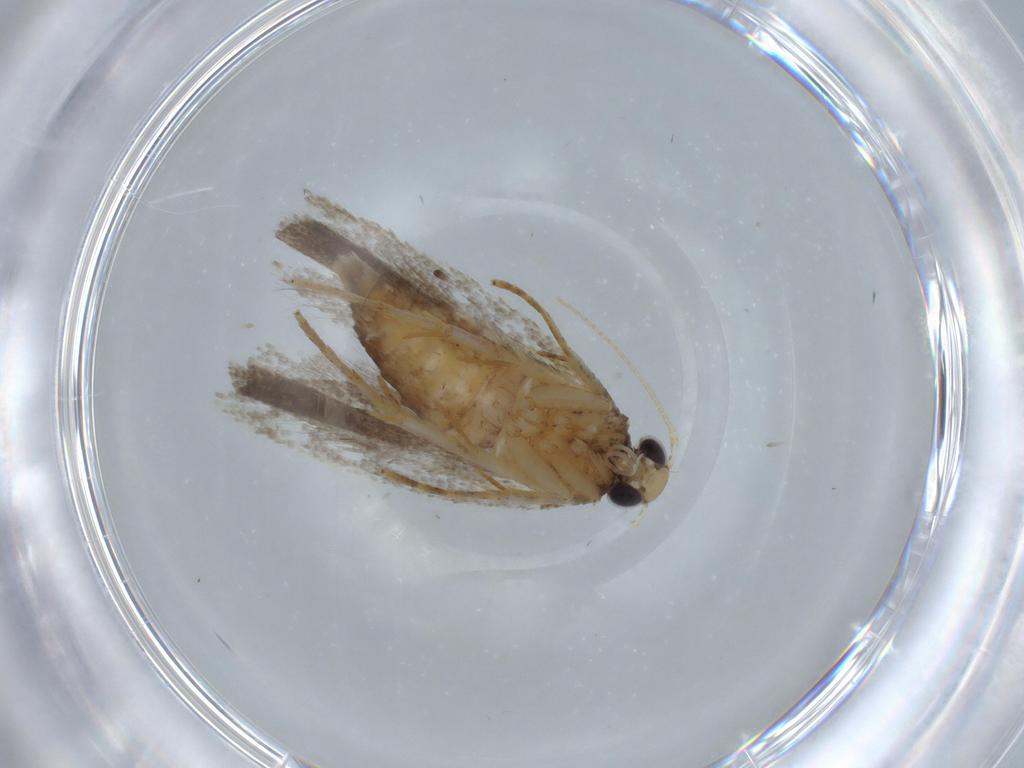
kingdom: Animalia
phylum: Arthropoda
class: Insecta
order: Lepidoptera
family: Gelechiidae
